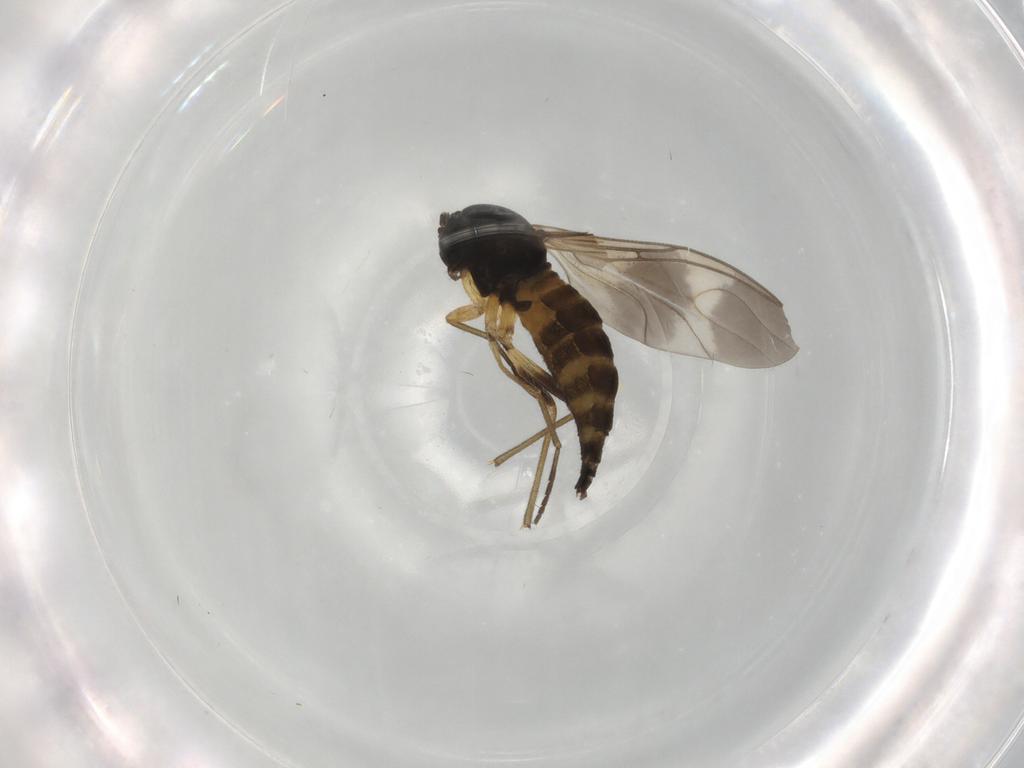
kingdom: Animalia
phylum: Arthropoda
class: Insecta
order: Diptera
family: Sciaridae
